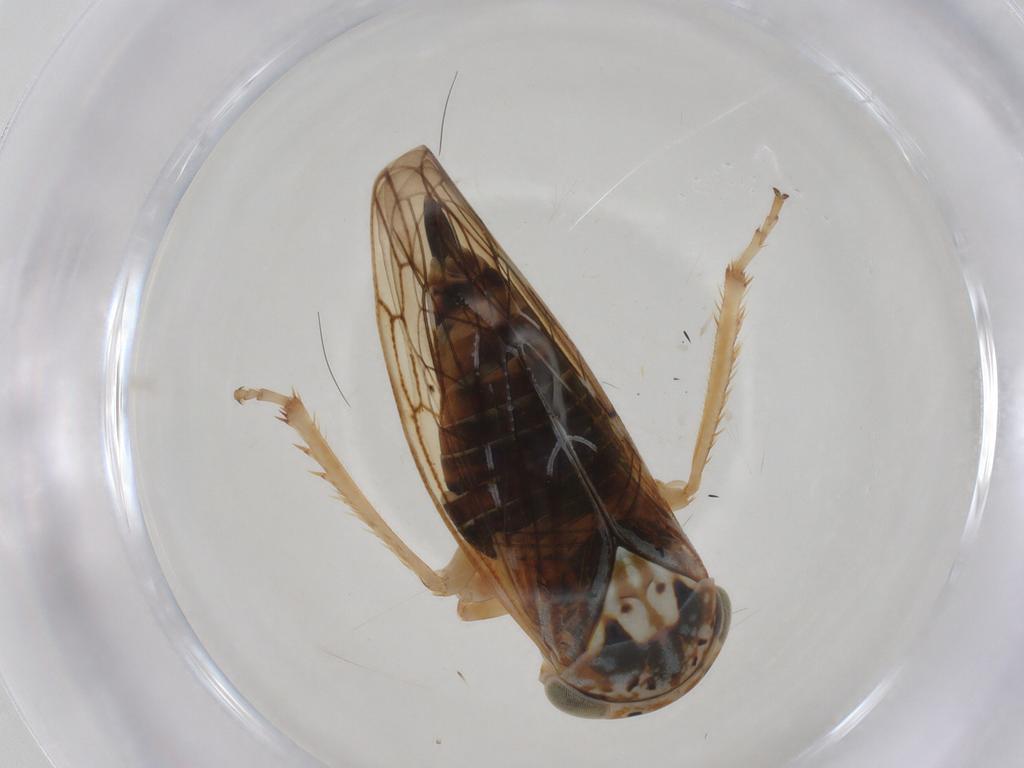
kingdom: Animalia
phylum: Arthropoda
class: Insecta
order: Hemiptera
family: Cicadellidae
